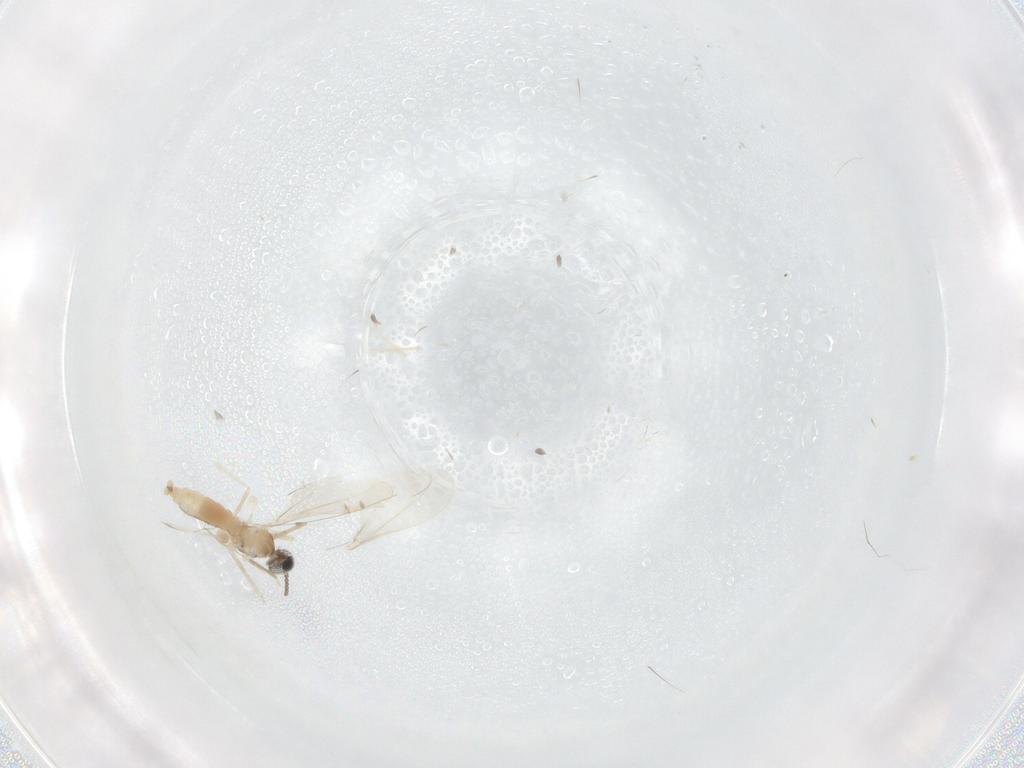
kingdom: Animalia
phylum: Arthropoda
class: Insecta
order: Diptera
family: Cecidomyiidae
